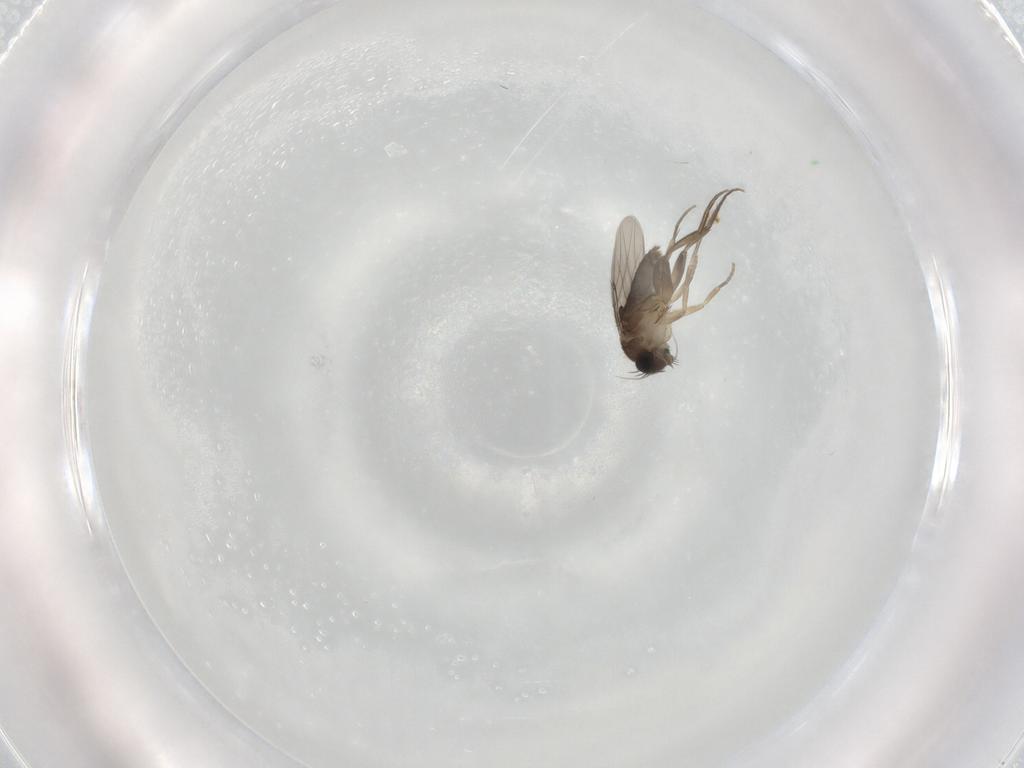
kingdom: Animalia
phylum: Arthropoda
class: Insecta
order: Diptera
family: Phoridae
